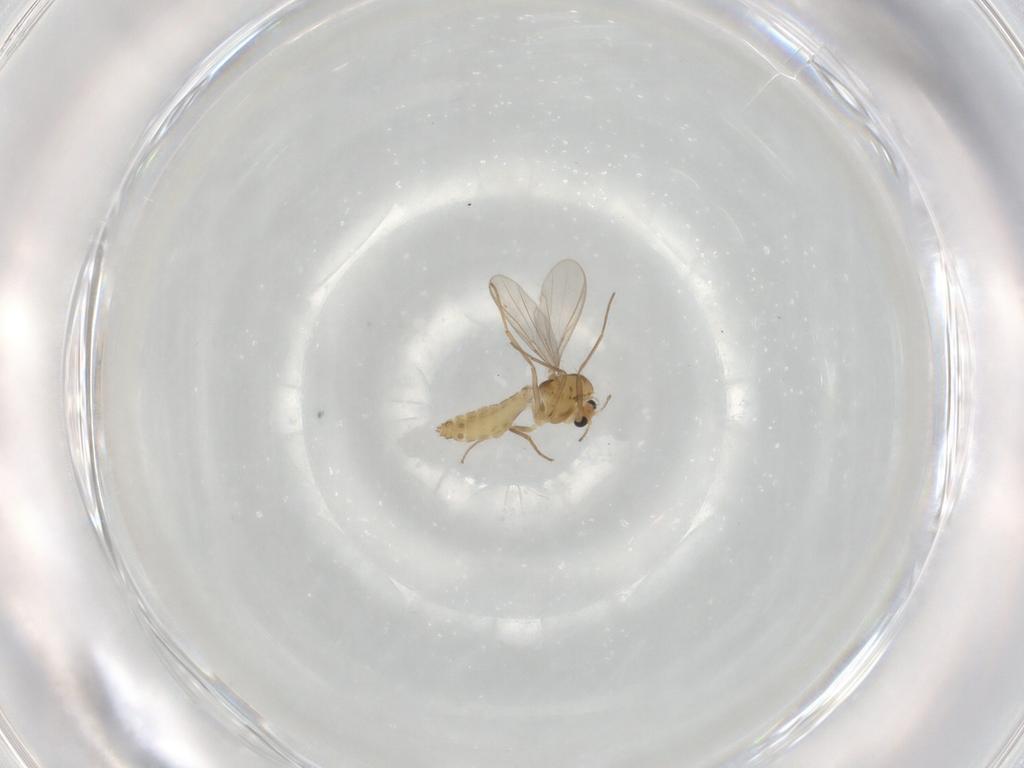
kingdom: Animalia
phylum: Arthropoda
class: Insecta
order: Diptera
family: Chironomidae
